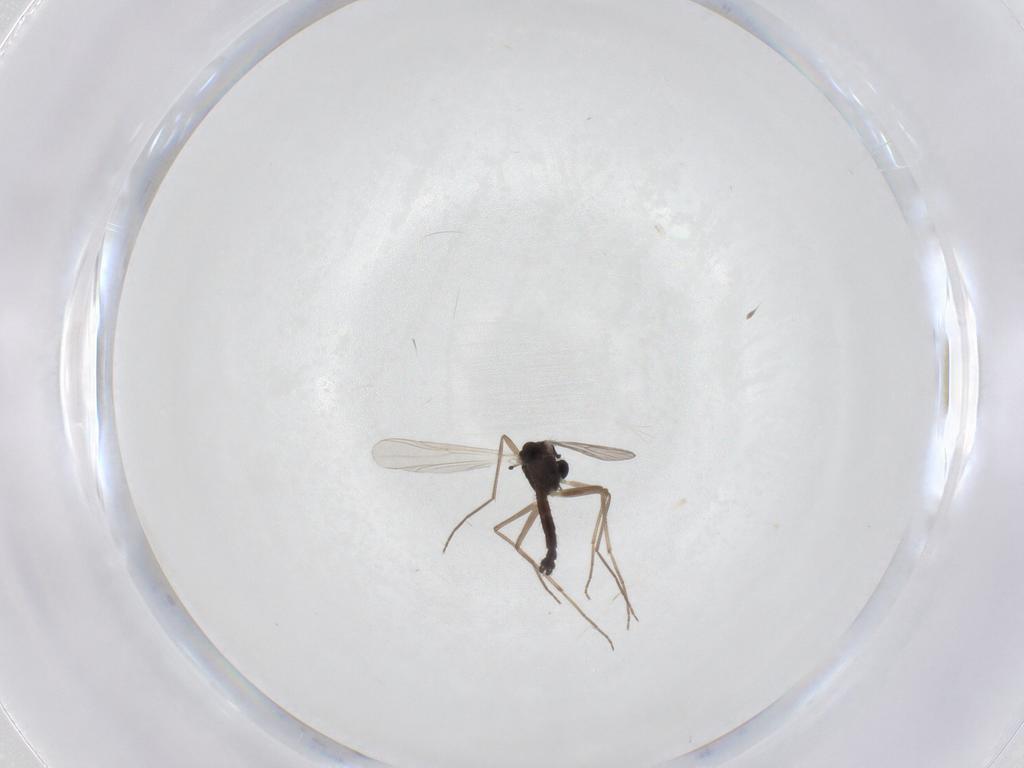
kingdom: Animalia
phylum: Arthropoda
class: Insecta
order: Diptera
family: Chironomidae
